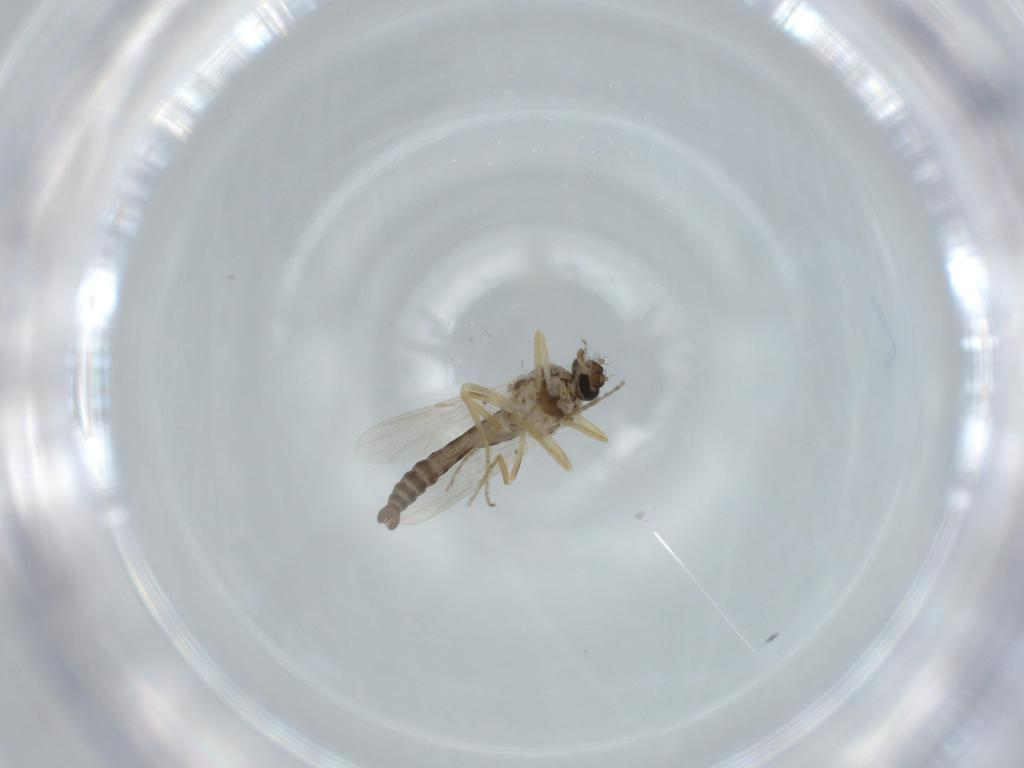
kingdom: Animalia
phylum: Arthropoda
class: Insecta
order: Diptera
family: Ceratopogonidae
